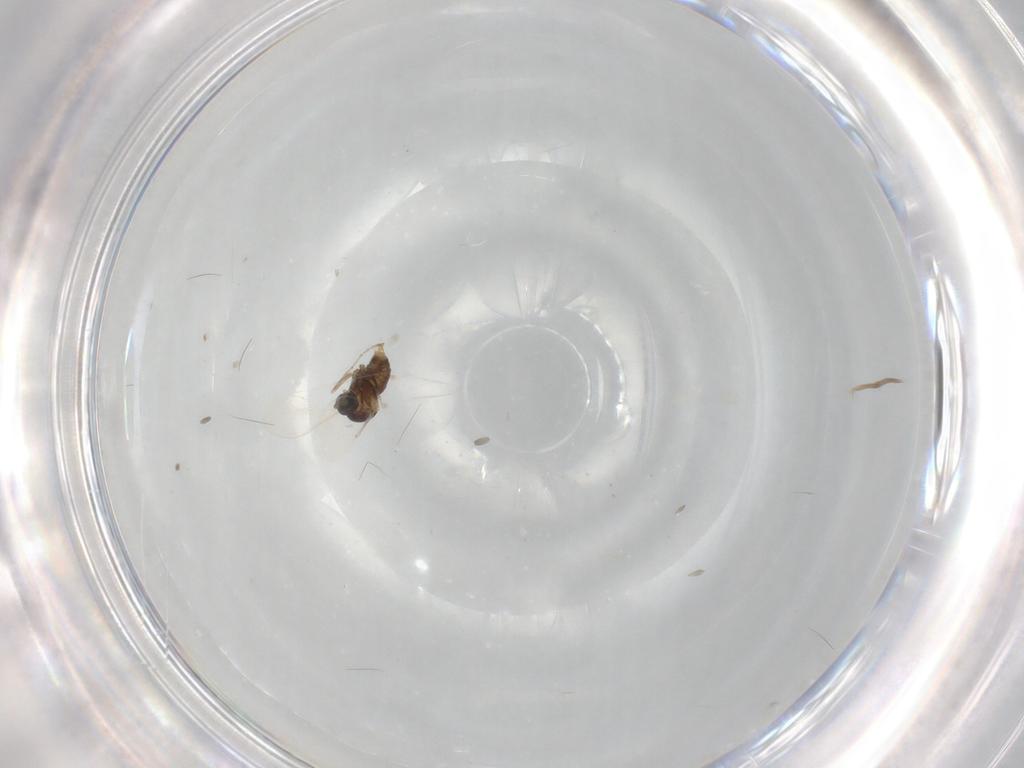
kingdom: Animalia
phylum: Arthropoda
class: Insecta
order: Diptera
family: Cecidomyiidae
